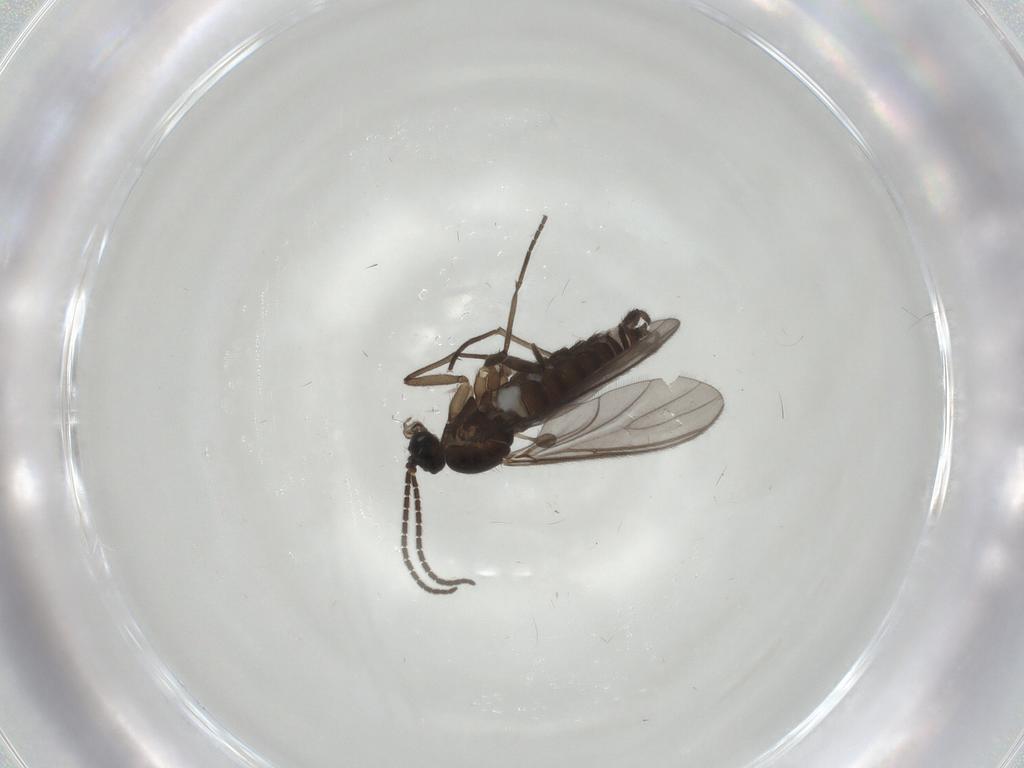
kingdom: Animalia
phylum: Arthropoda
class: Insecta
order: Diptera
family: Sciaridae
